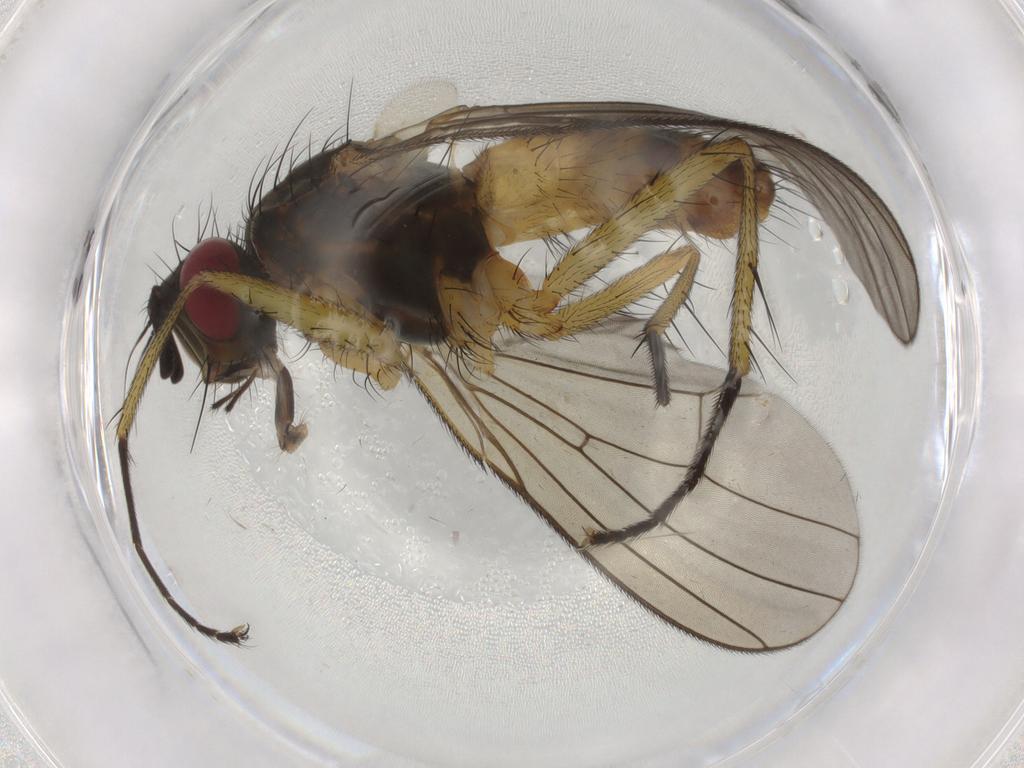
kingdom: Animalia
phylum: Arthropoda
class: Insecta
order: Diptera
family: Muscidae
